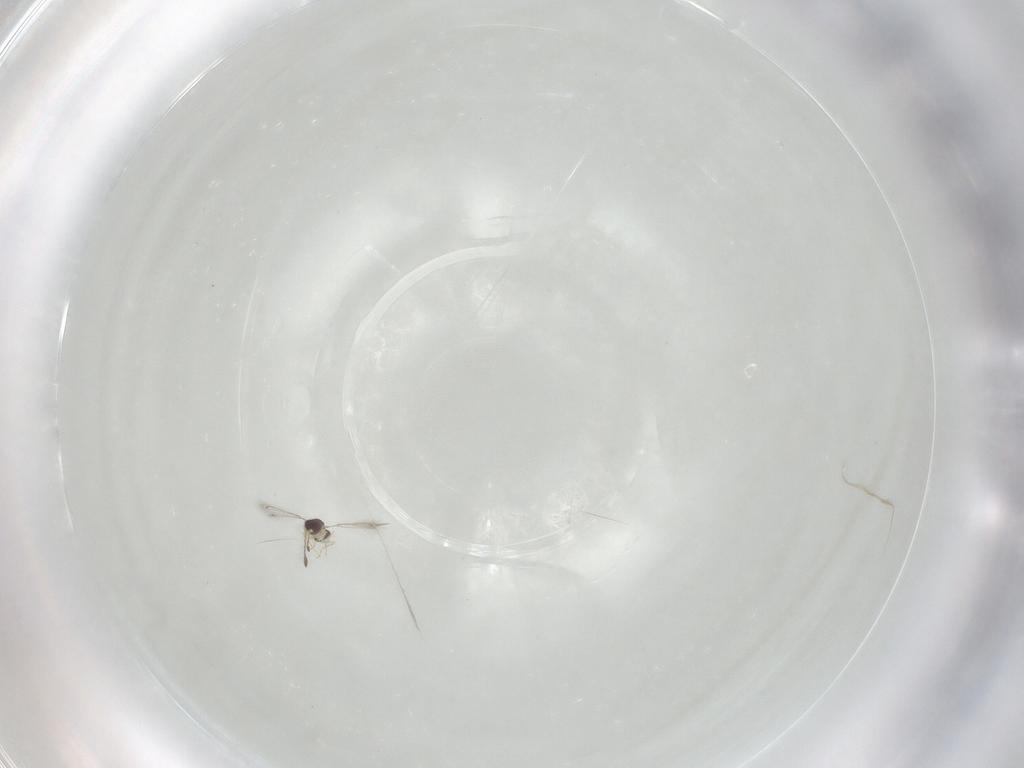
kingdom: Animalia
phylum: Arthropoda
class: Insecta
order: Hymenoptera
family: Mymaridae
